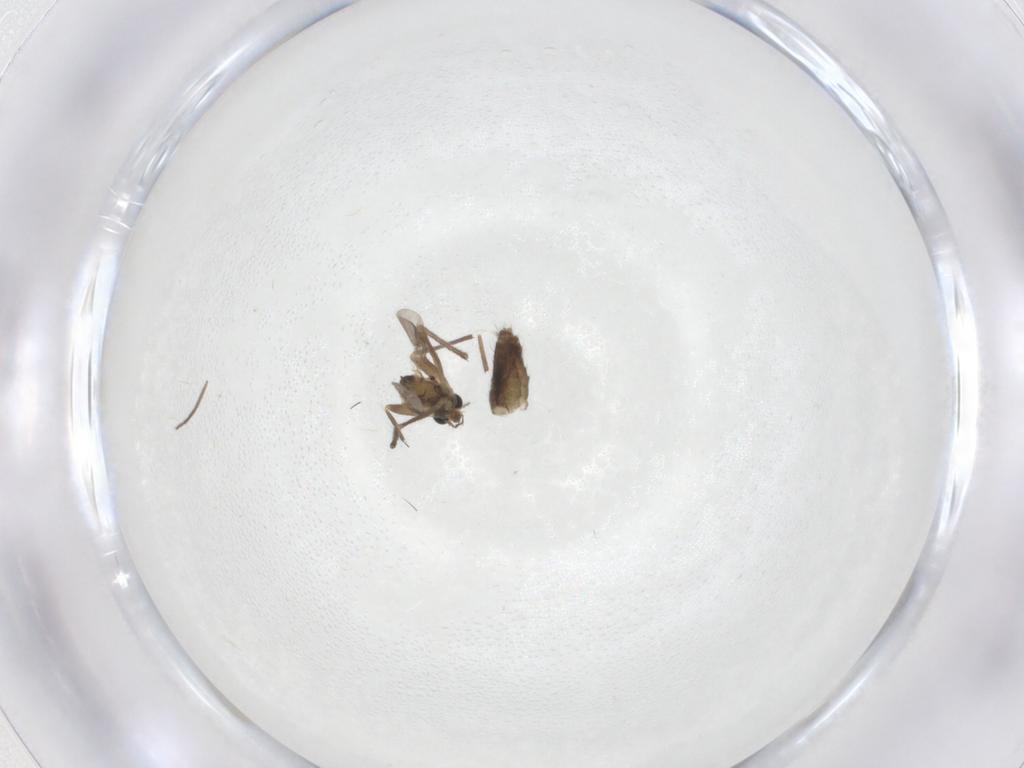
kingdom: Animalia
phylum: Arthropoda
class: Insecta
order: Diptera
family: Chironomidae
